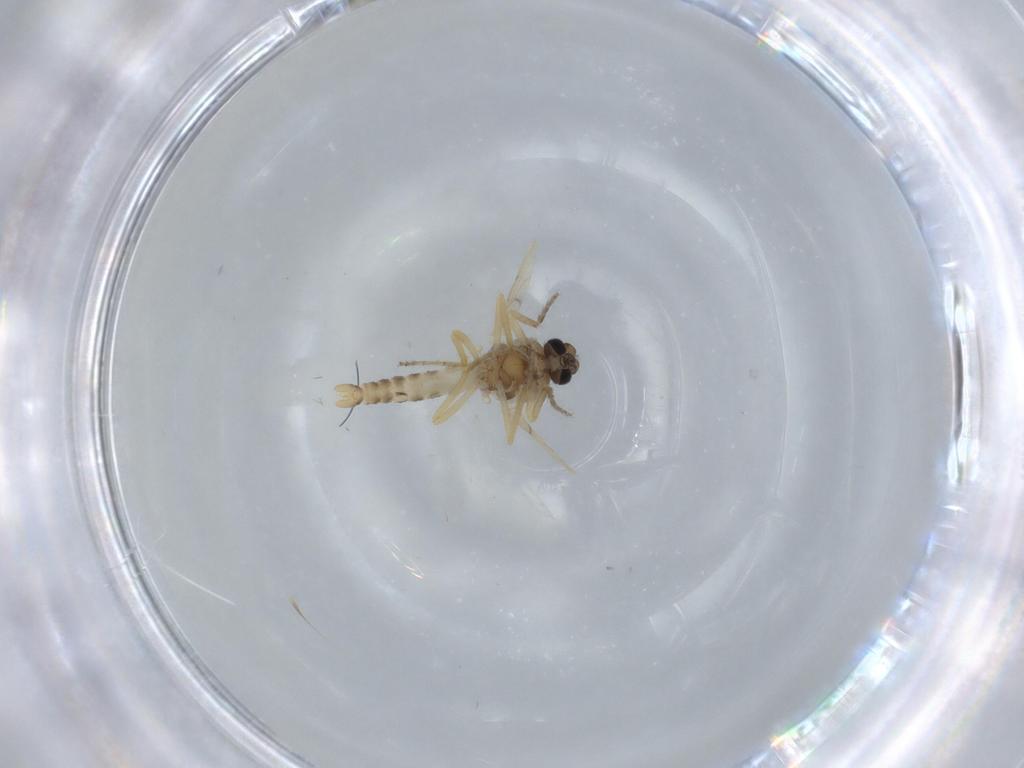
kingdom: Animalia
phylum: Arthropoda
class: Insecta
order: Diptera
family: Ceratopogonidae
